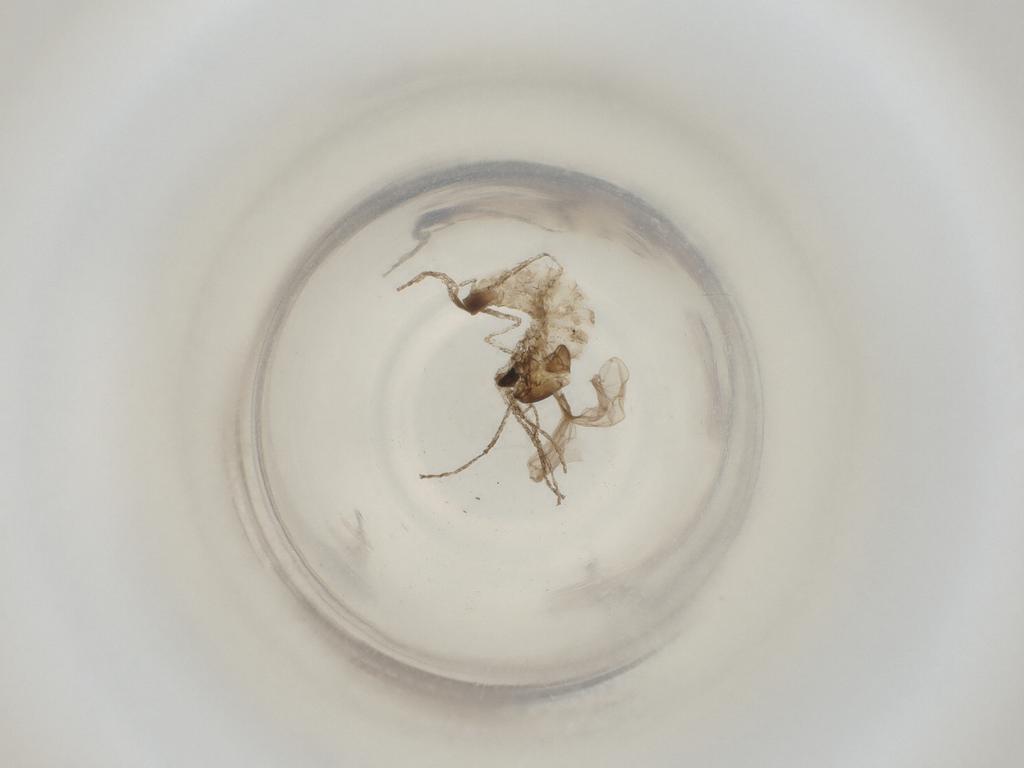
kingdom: Animalia
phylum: Arthropoda
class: Insecta
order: Diptera
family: Cecidomyiidae
